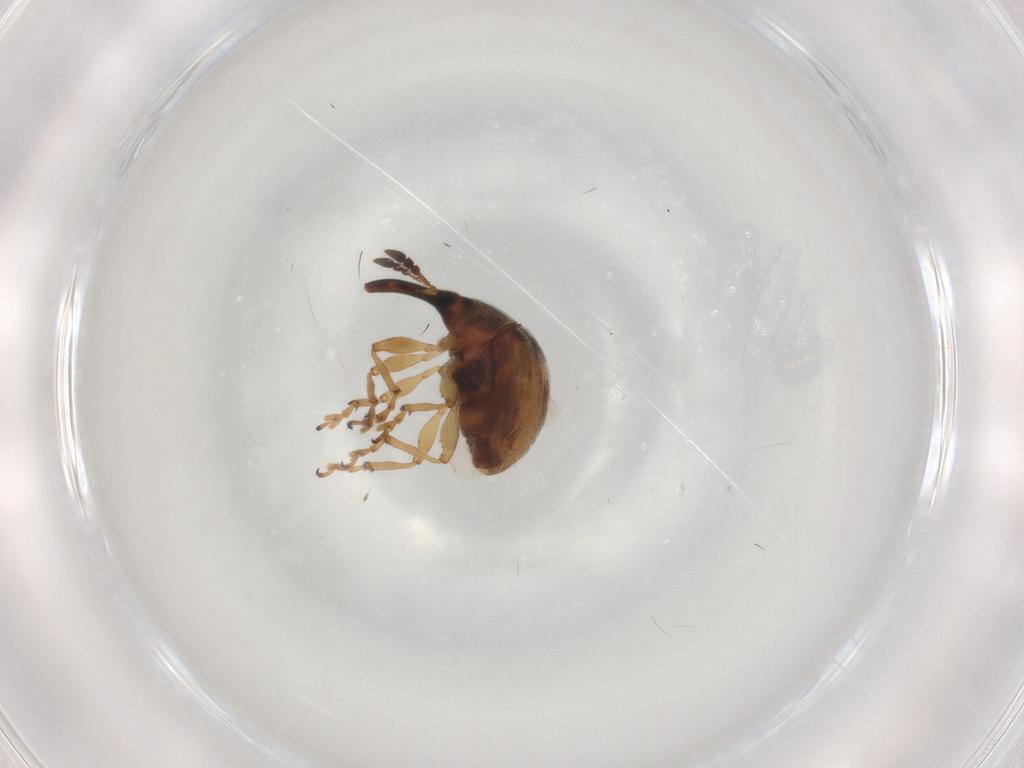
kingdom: Animalia
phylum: Arthropoda
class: Insecta
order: Coleoptera
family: Brentidae
